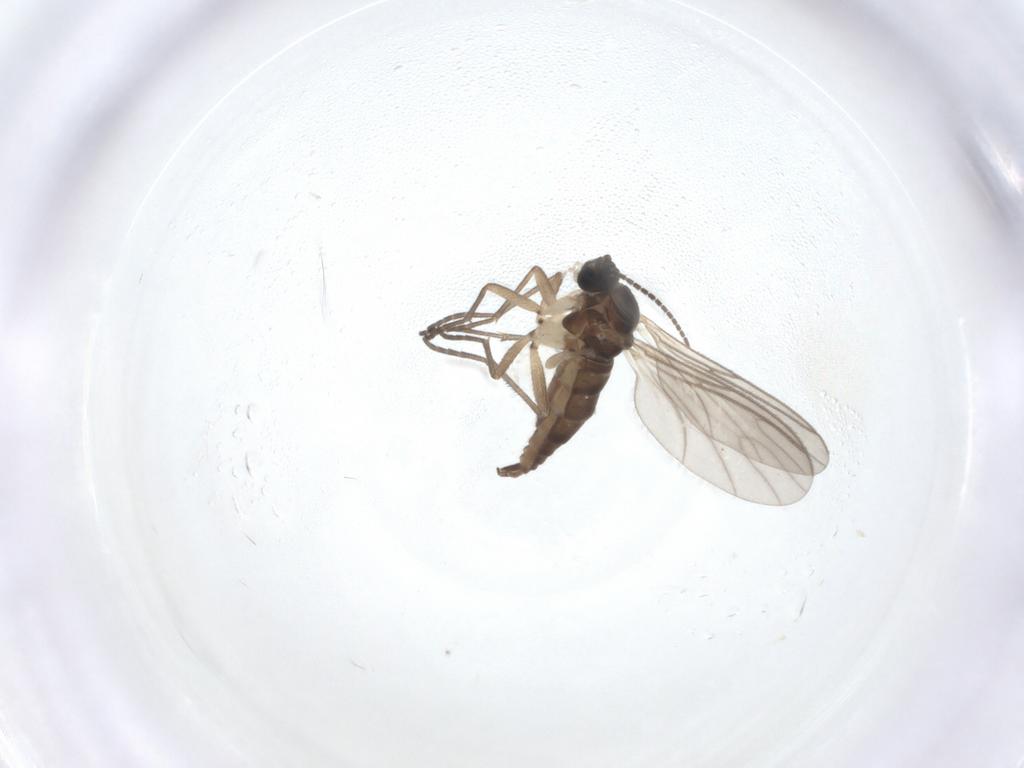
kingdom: Animalia
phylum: Arthropoda
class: Insecta
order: Diptera
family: Sciaridae
